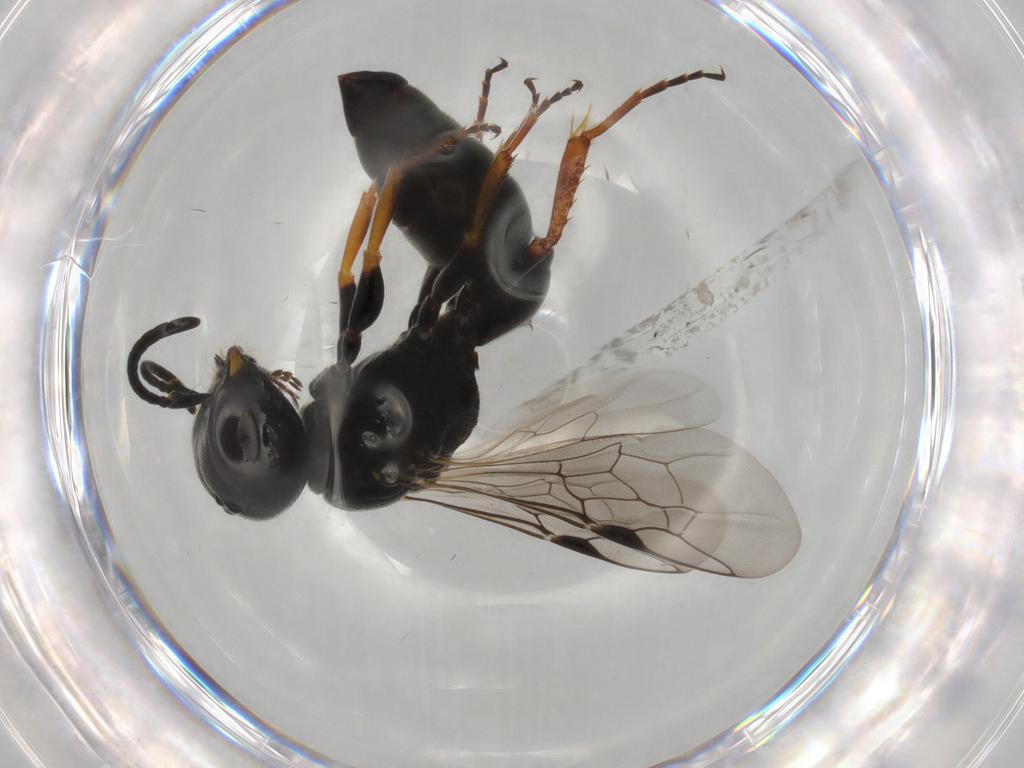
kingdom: Animalia
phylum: Arthropoda
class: Insecta
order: Hymenoptera
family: Pemphredonidae
